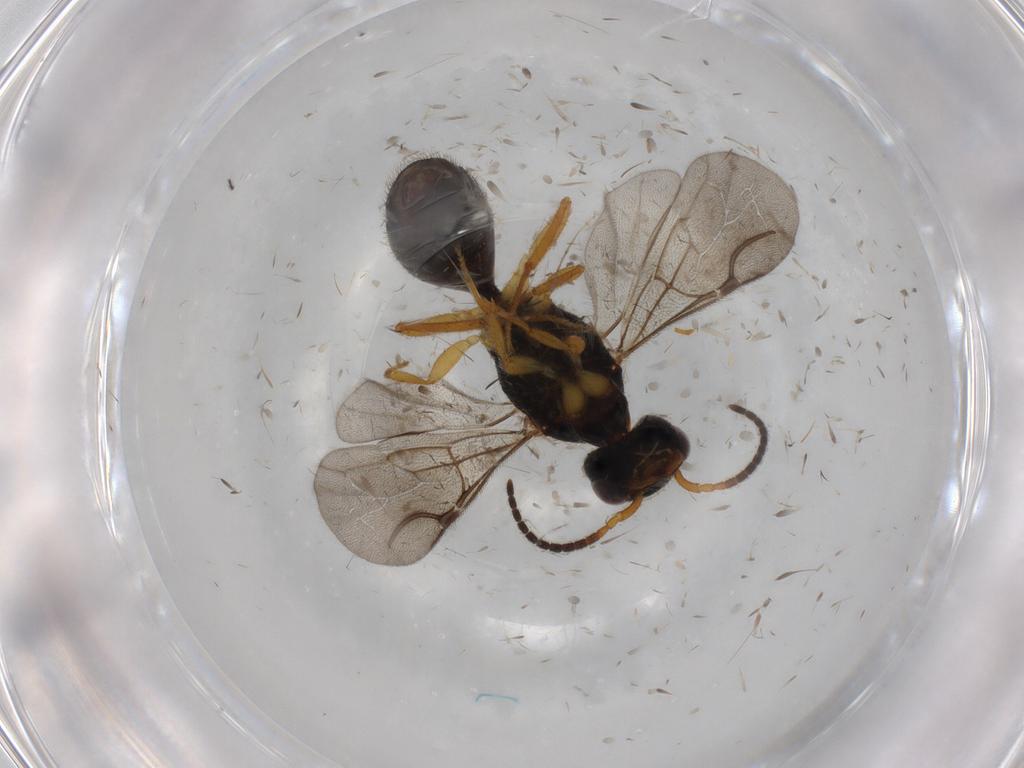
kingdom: Animalia
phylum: Arthropoda
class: Insecta
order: Hymenoptera
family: Bethylidae
